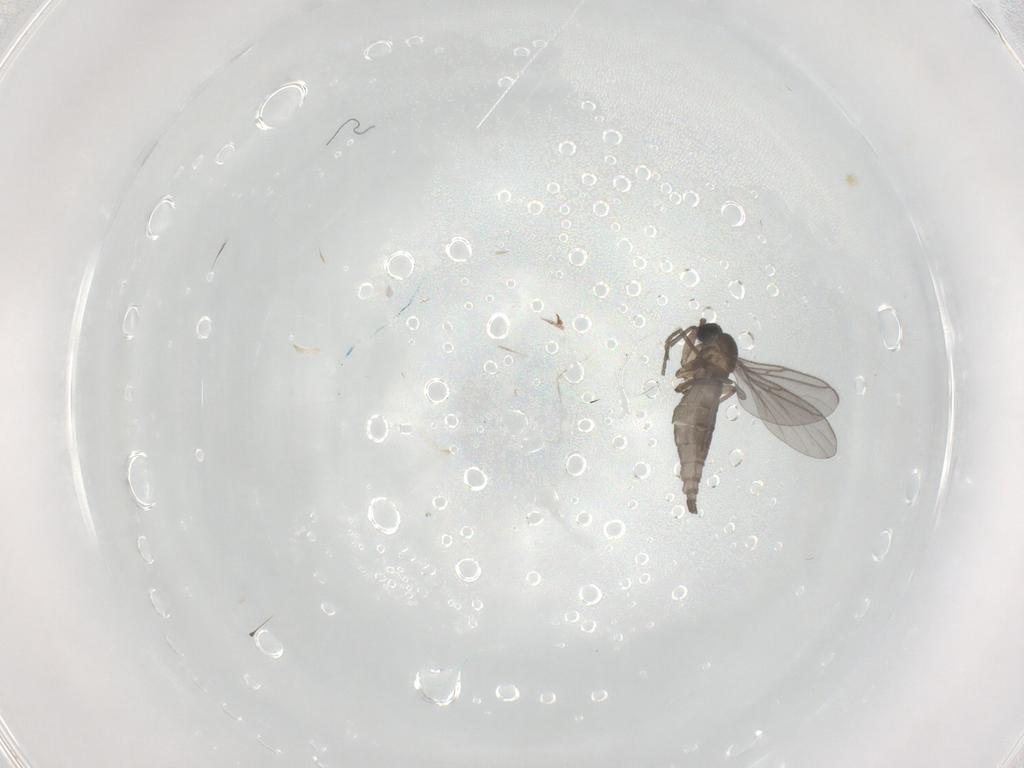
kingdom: Animalia
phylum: Arthropoda
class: Insecta
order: Diptera
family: Sciaridae
